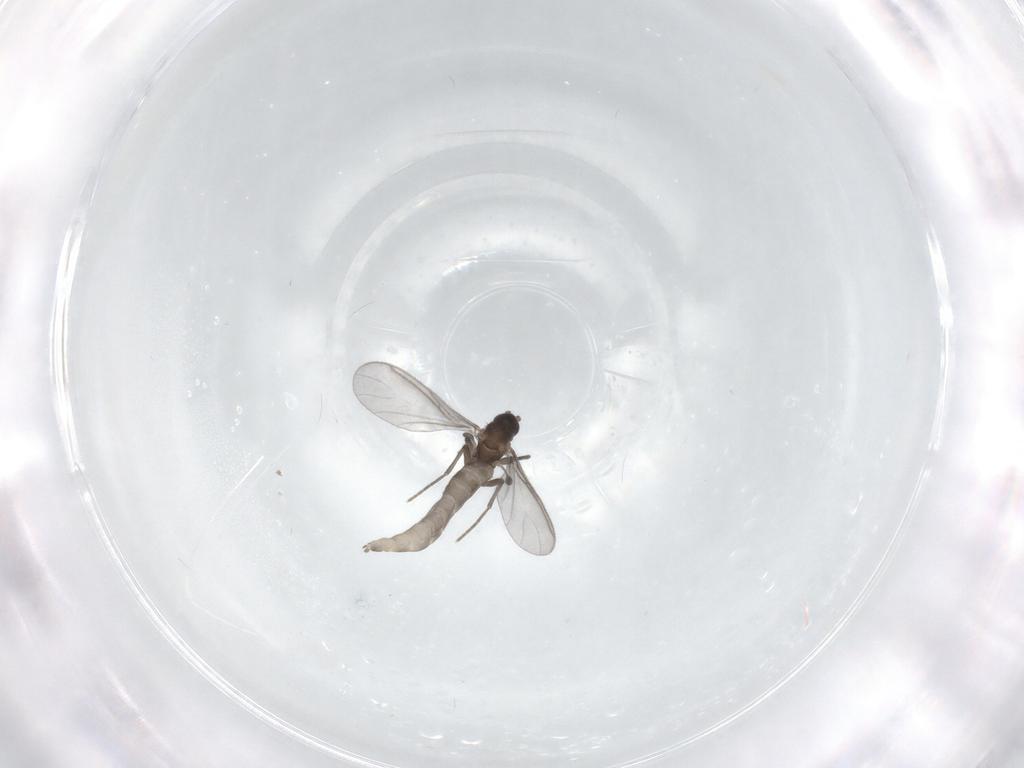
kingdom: Animalia
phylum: Arthropoda
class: Insecta
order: Diptera
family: Sciaridae
